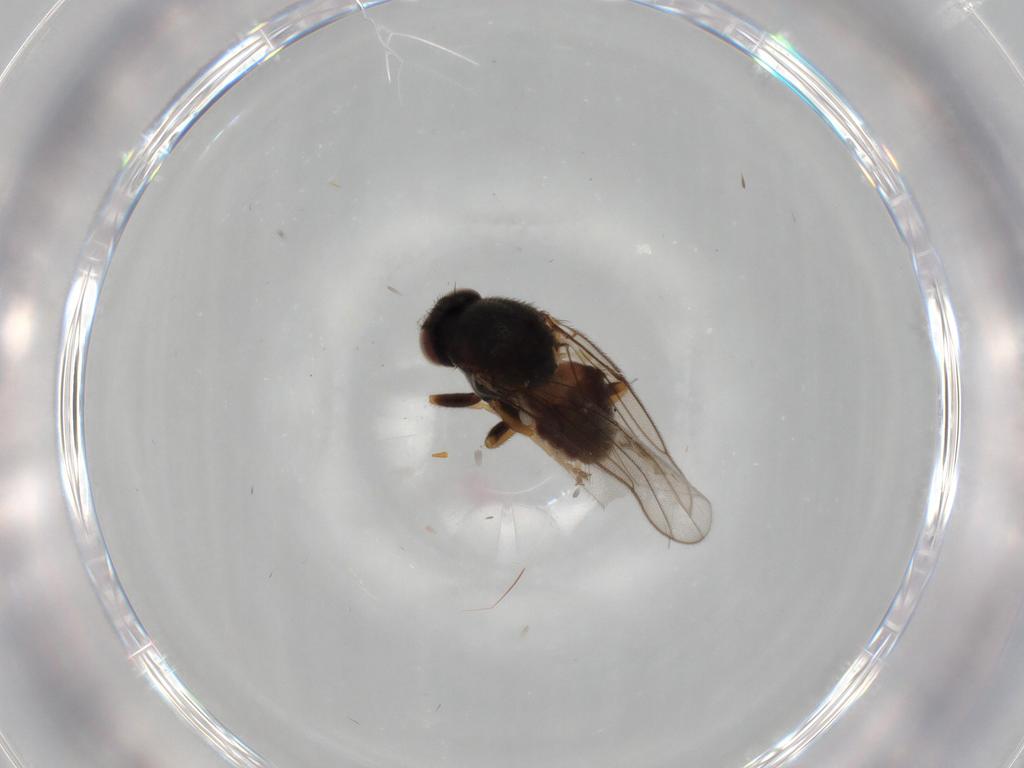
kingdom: Animalia
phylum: Arthropoda
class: Insecta
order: Diptera
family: Chloropidae
